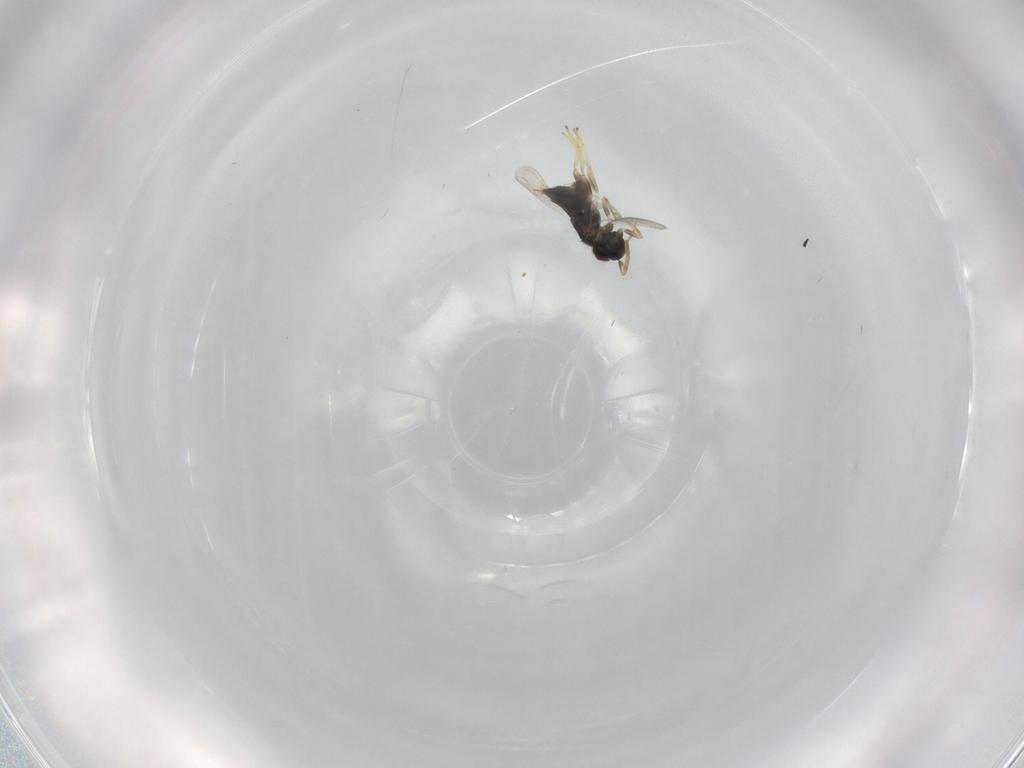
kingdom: Animalia
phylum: Arthropoda
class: Insecta
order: Hymenoptera
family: Aphelinidae
